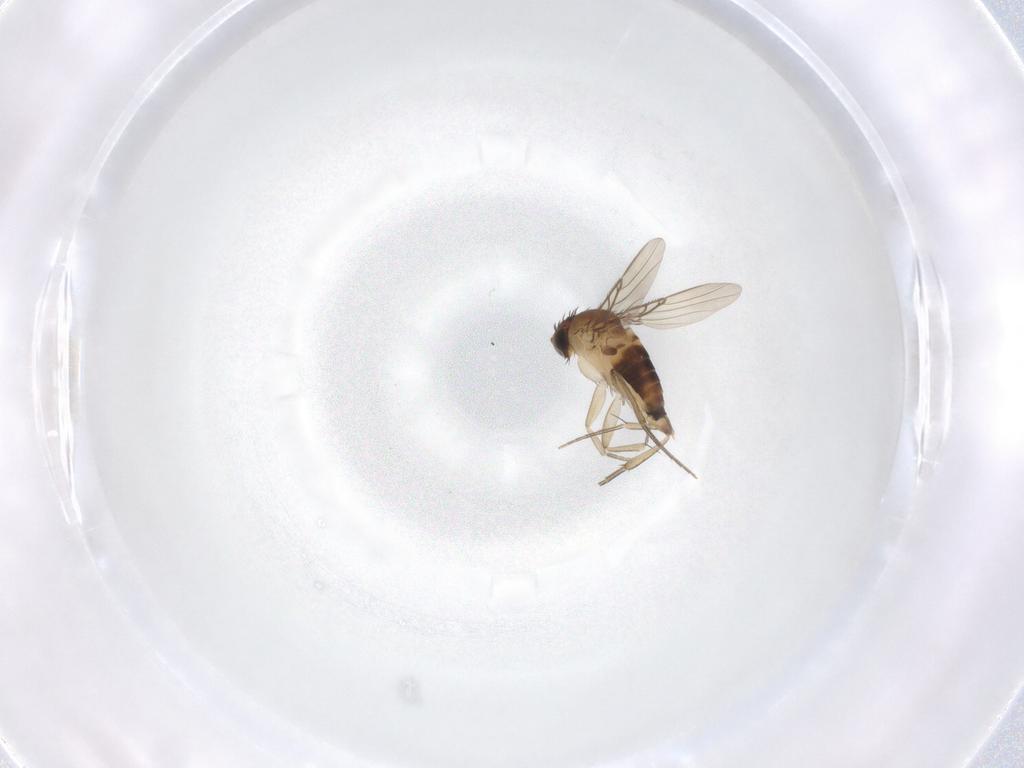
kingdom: Animalia
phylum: Arthropoda
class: Insecta
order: Diptera
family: Phoridae
